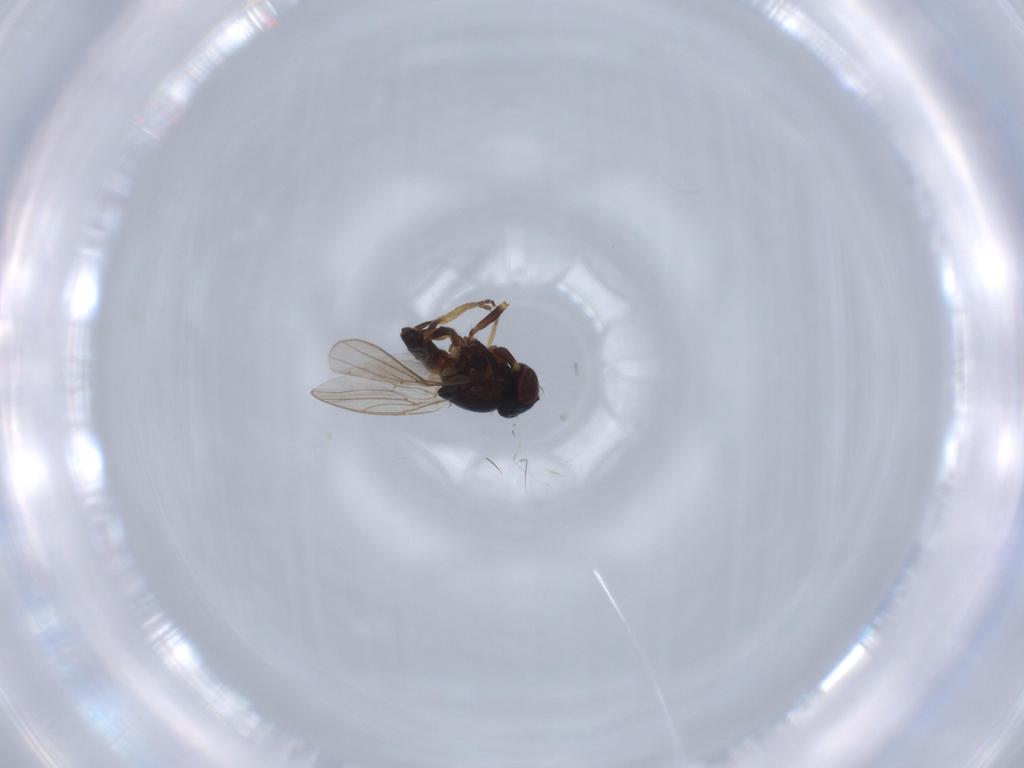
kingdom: Animalia
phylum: Arthropoda
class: Insecta
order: Diptera
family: Chloropidae
